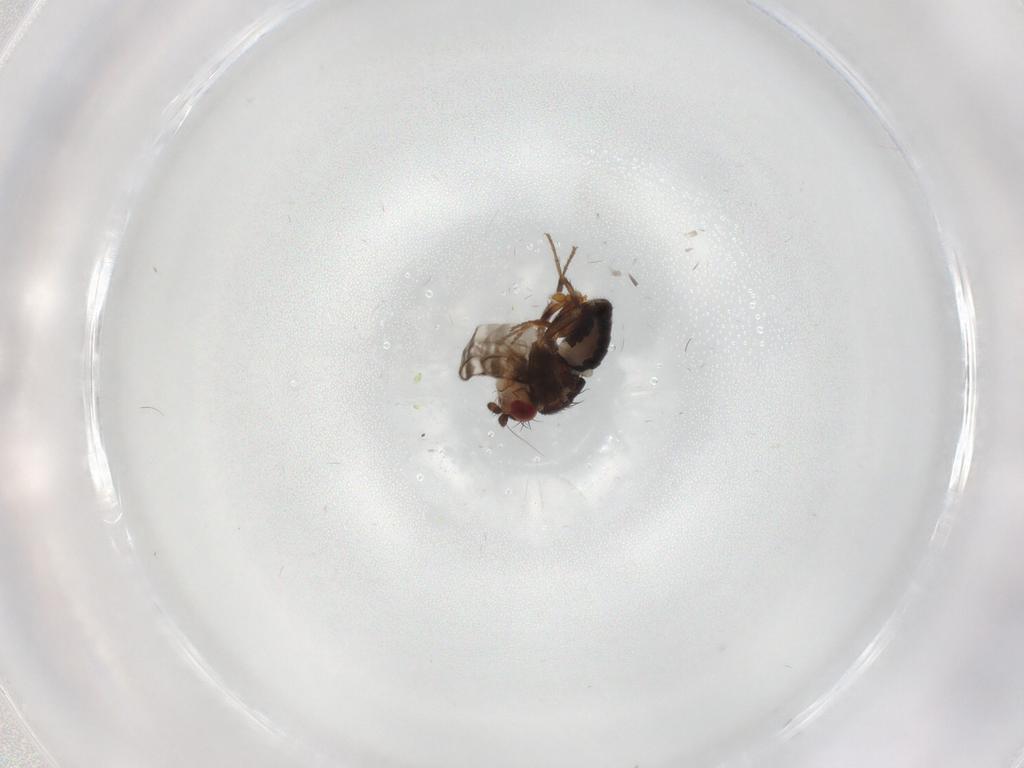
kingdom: Animalia
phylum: Arthropoda
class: Insecta
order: Diptera
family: Sphaeroceridae
